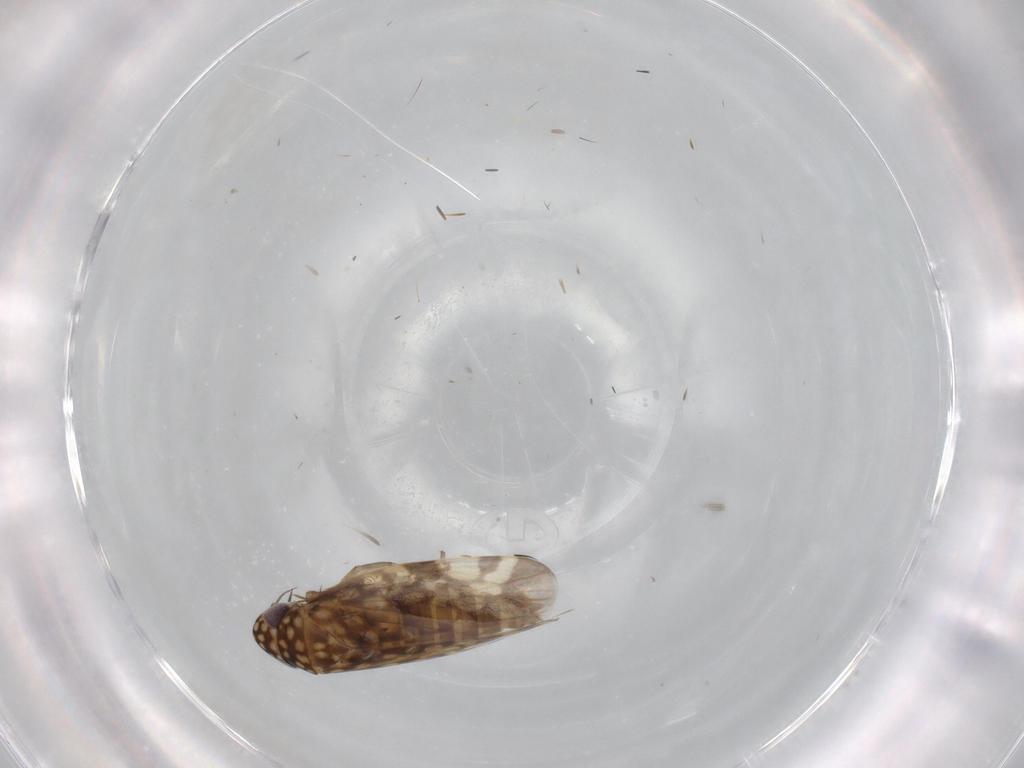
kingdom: Animalia
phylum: Arthropoda
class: Insecta
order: Hemiptera
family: Cicadellidae
